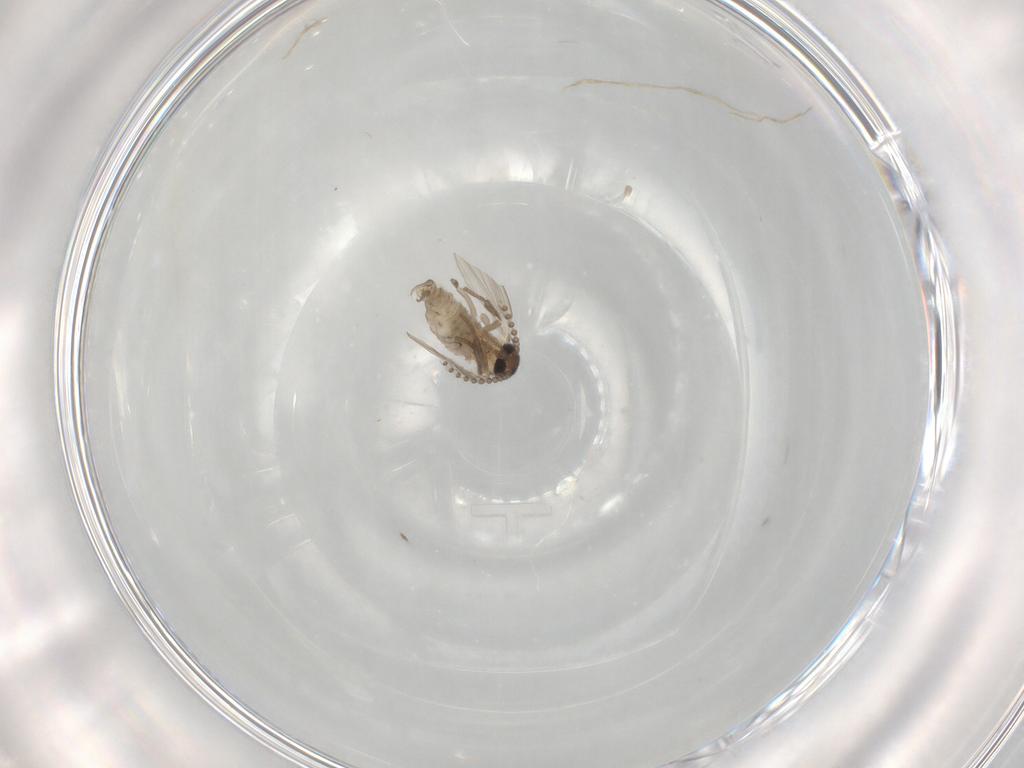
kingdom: Animalia
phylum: Arthropoda
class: Insecta
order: Diptera
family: Psychodidae
